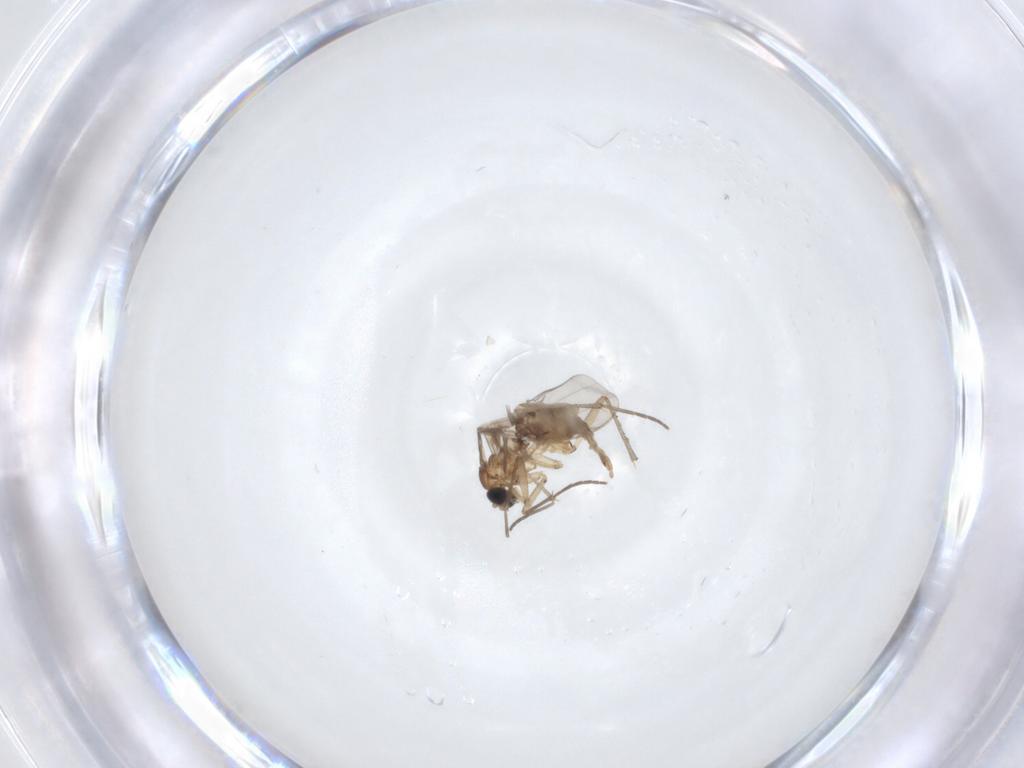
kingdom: Animalia
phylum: Arthropoda
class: Insecta
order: Diptera
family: Sciaridae
